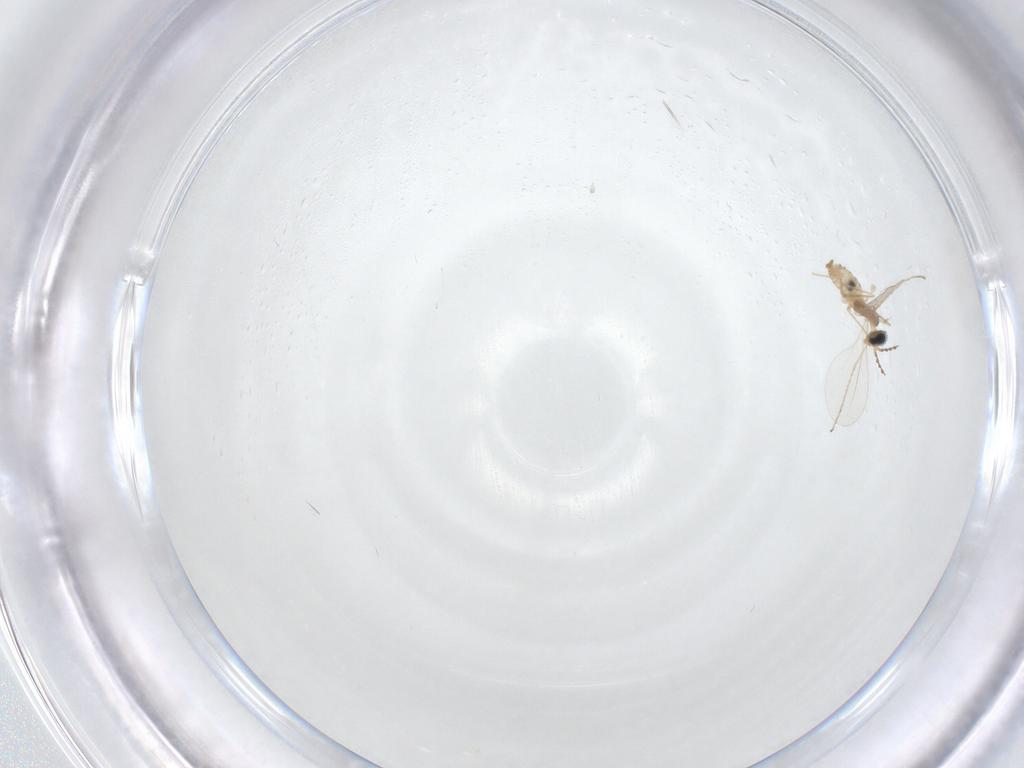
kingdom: Animalia
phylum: Arthropoda
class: Insecta
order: Diptera
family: Cecidomyiidae
